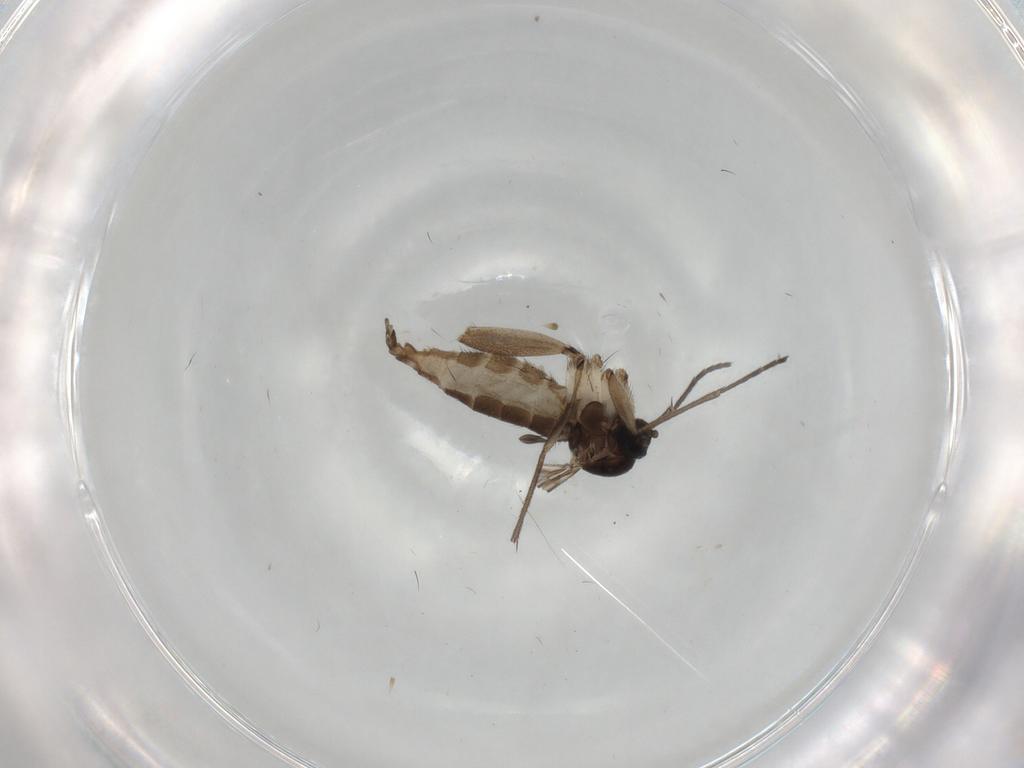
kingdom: Animalia
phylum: Arthropoda
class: Insecta
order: Diptera
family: Sciaridae
